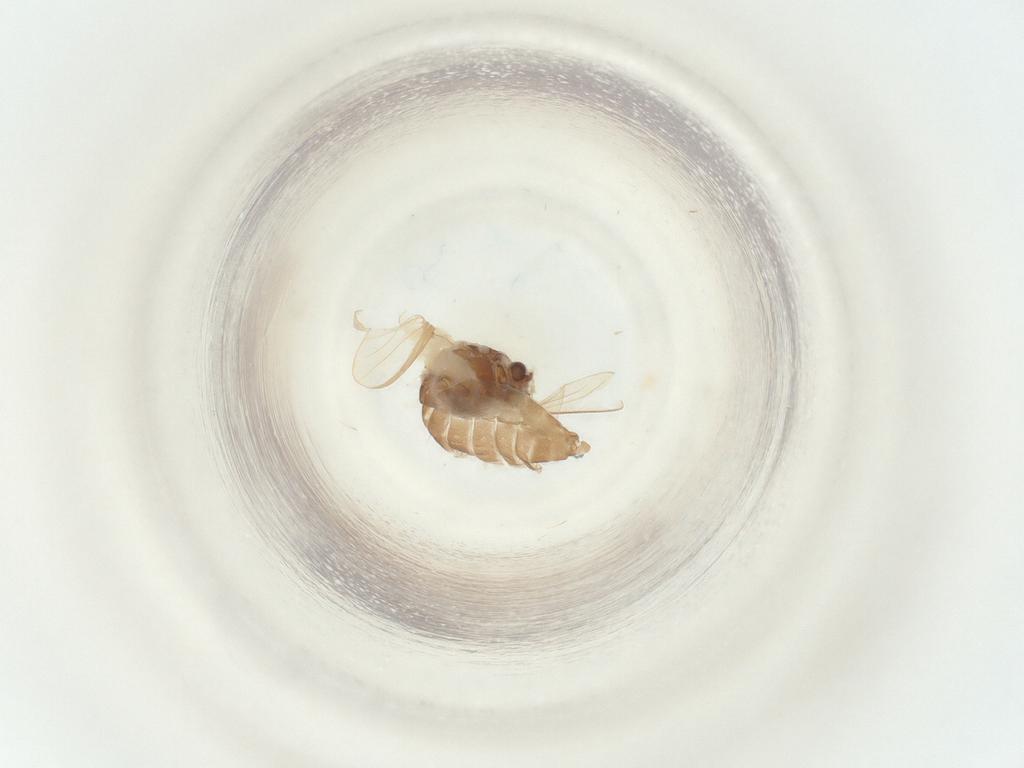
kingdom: Animalia
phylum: Arthropoda
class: Insecta
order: Diptera
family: Chironomidae
